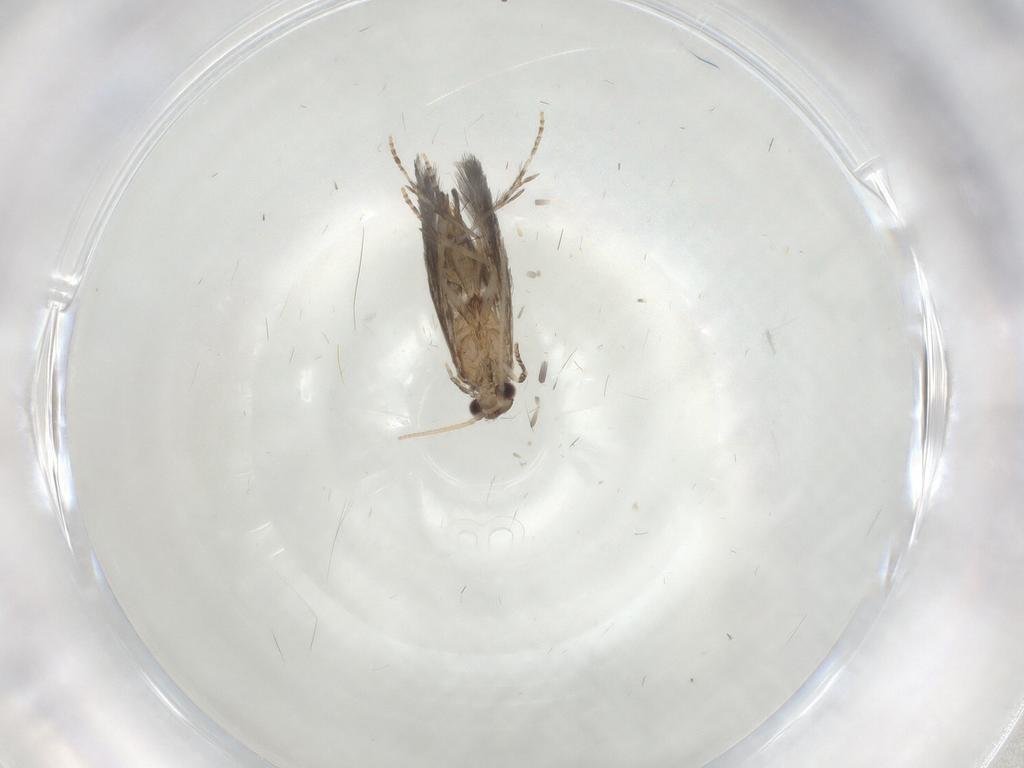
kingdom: Animalia
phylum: Arthropoda
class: Insecta
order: Trichoptera
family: Hydroptilidae
